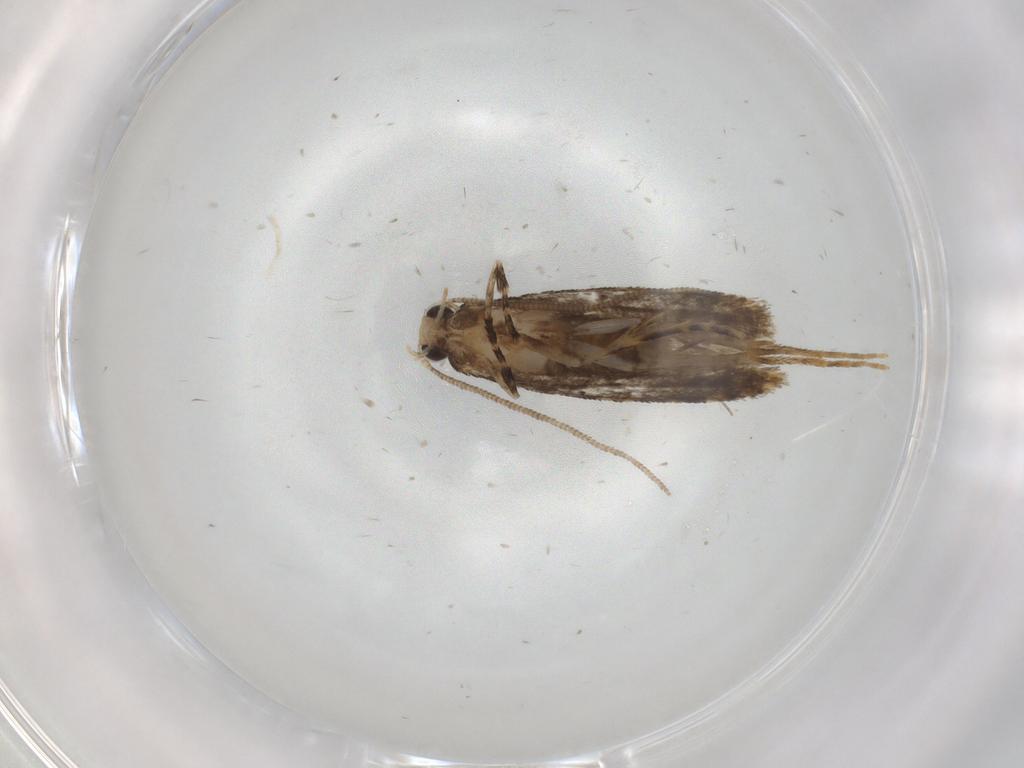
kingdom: Animalia
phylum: Arthropoda
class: Insecta
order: Lepidoptera
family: Tineidae
